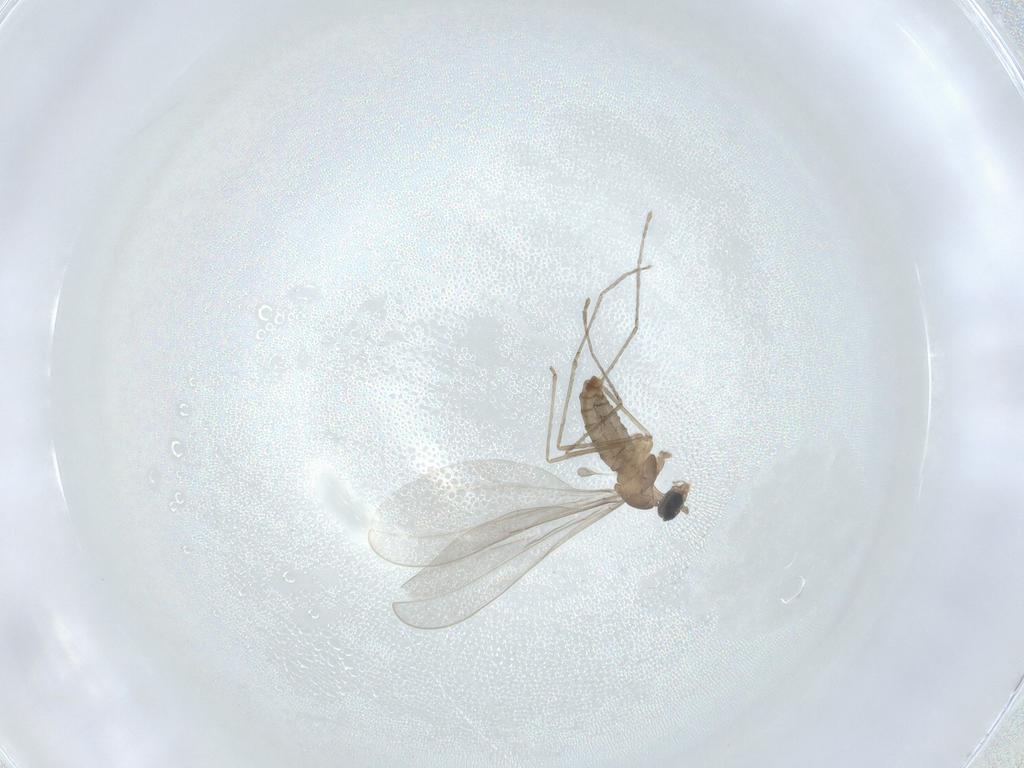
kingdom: Animalia
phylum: Arthropoda
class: Insecta
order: Diptera
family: Cecidomyiidae
